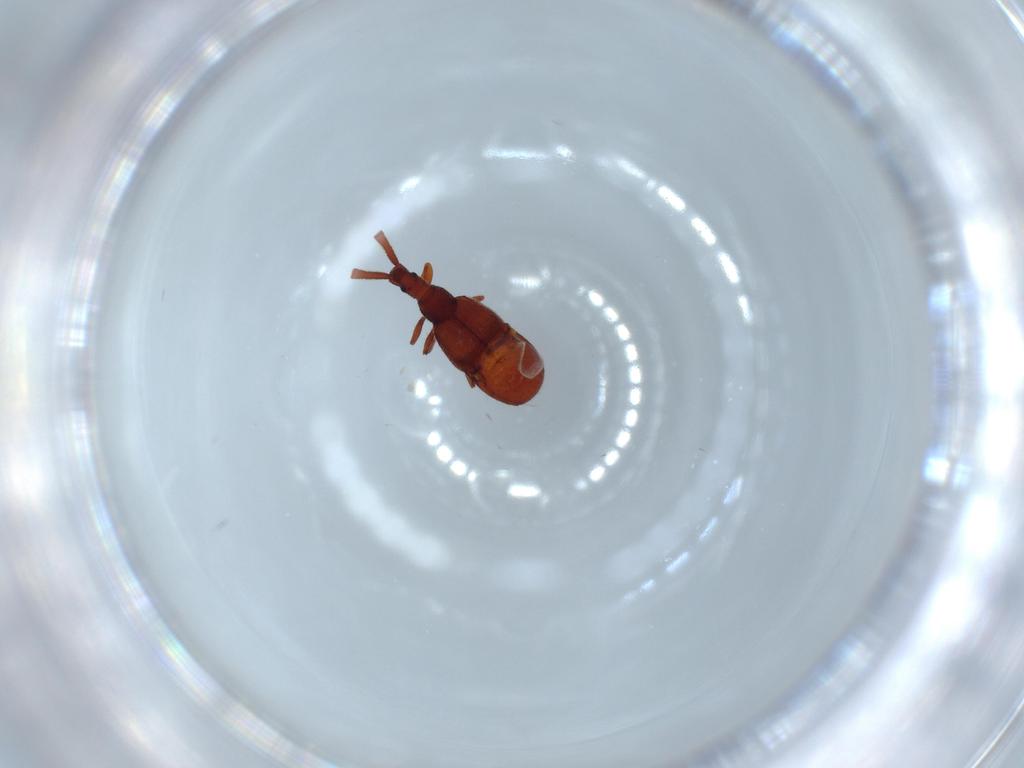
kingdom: Animalia
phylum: Arthropoda
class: Insecta
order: Coleoptera
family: Staphylinidae
